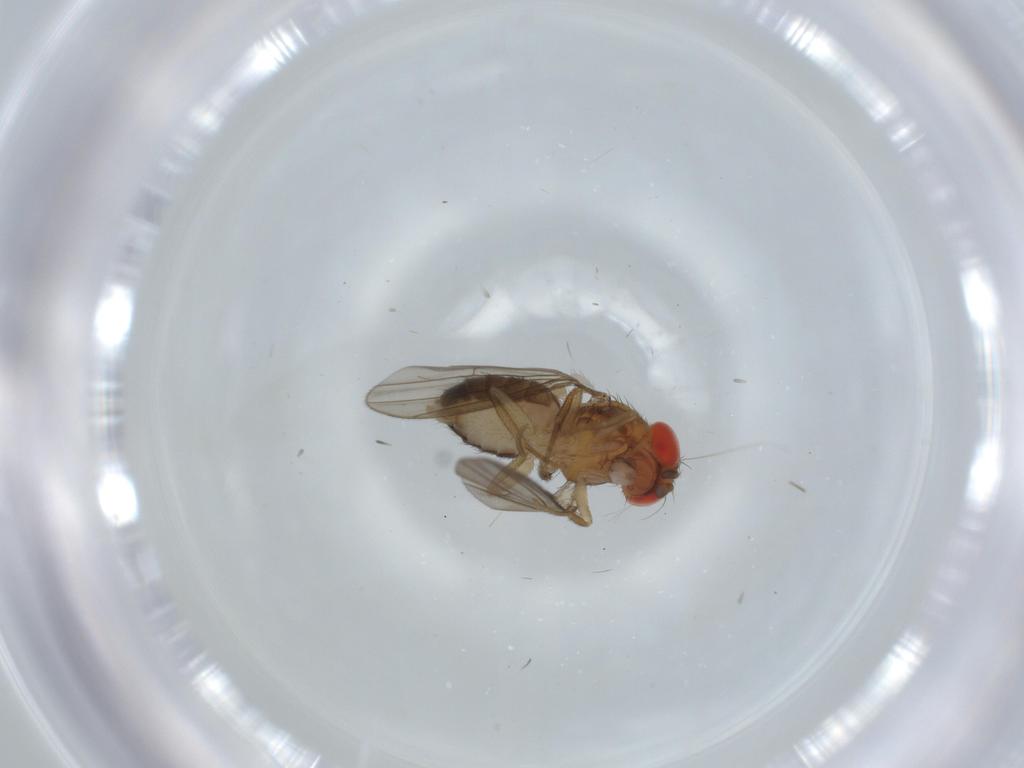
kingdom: Animalia
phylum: Arthropoda
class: Insecta
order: Diptera
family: Drosophilidae
